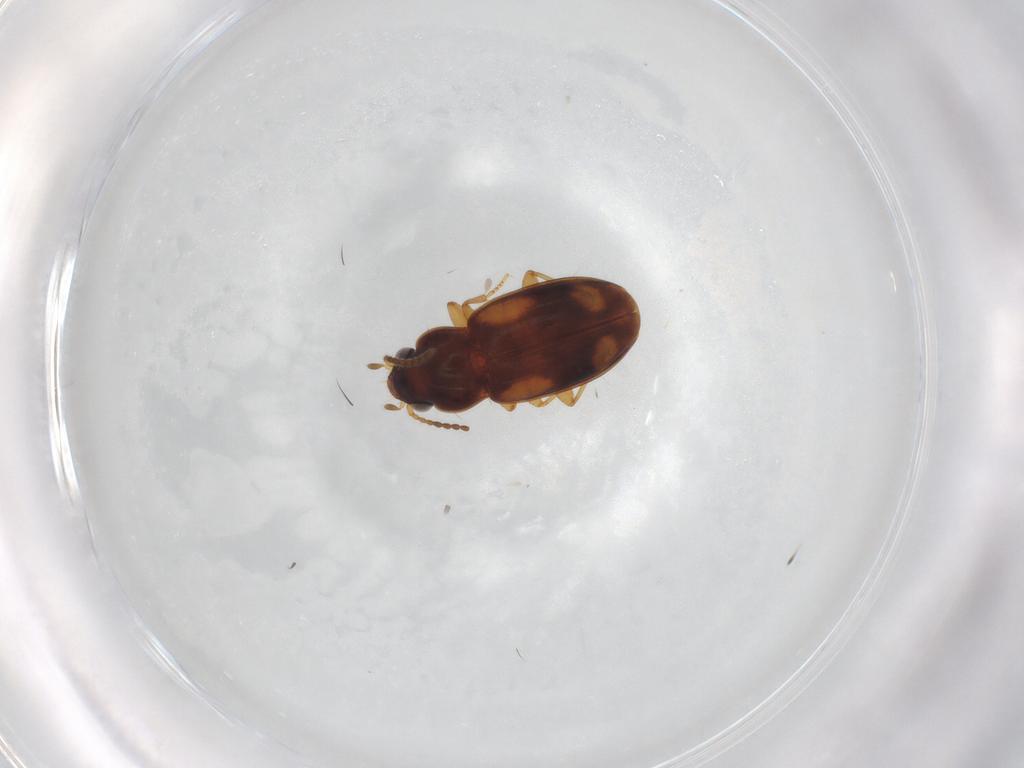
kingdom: Animalia
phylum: Arthropoda
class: Insecta
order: Coleoptera
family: Carabidae
